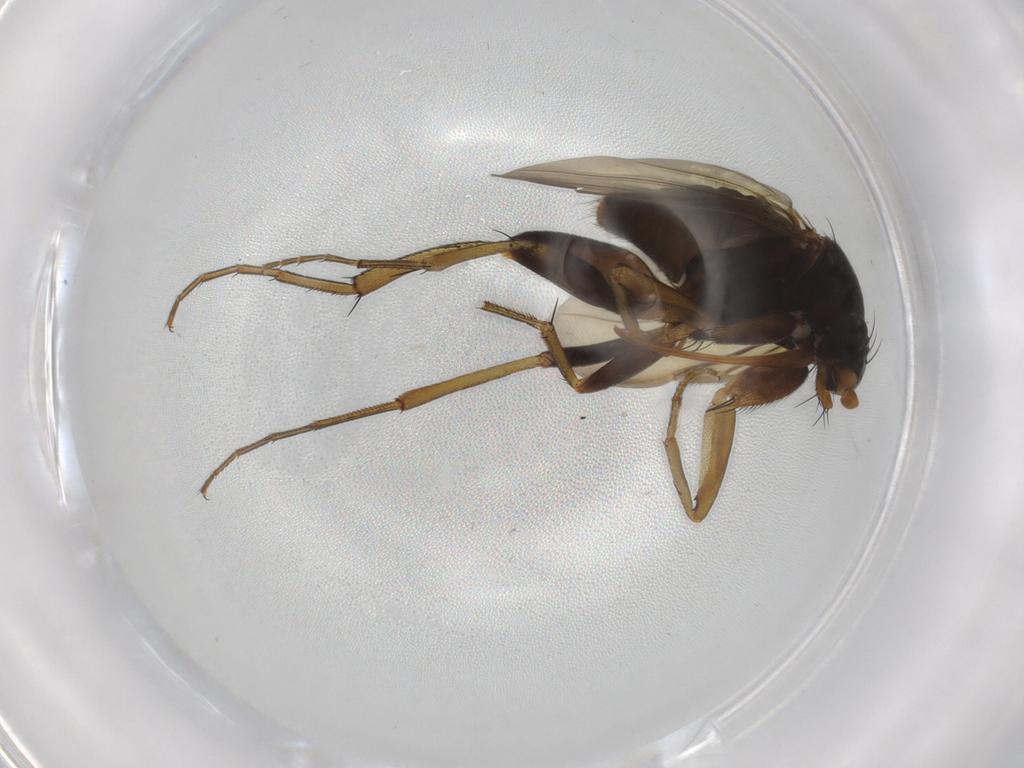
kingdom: Animalia
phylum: Arthropoda
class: Insecta
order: Diptera
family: Phoridae
